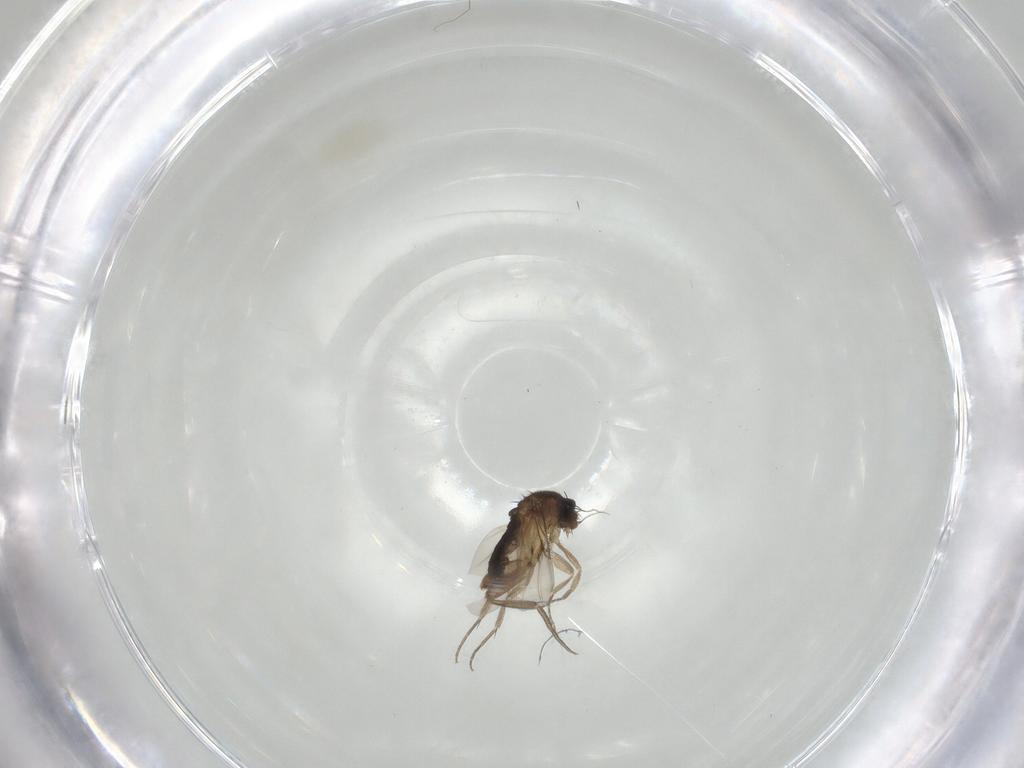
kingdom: Animalia
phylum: Arthropoda
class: Insecta
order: Diptera
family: Phoridae
